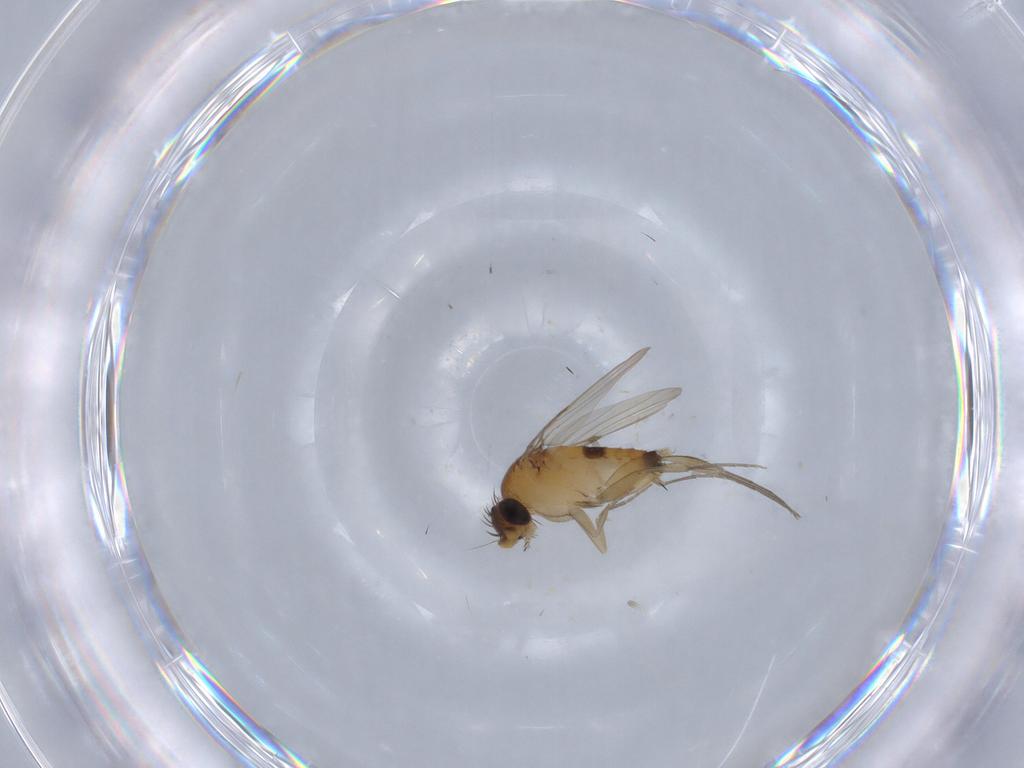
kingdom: Animalia
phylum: Arthropoda
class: Insecta
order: Diptera
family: Phoridae
